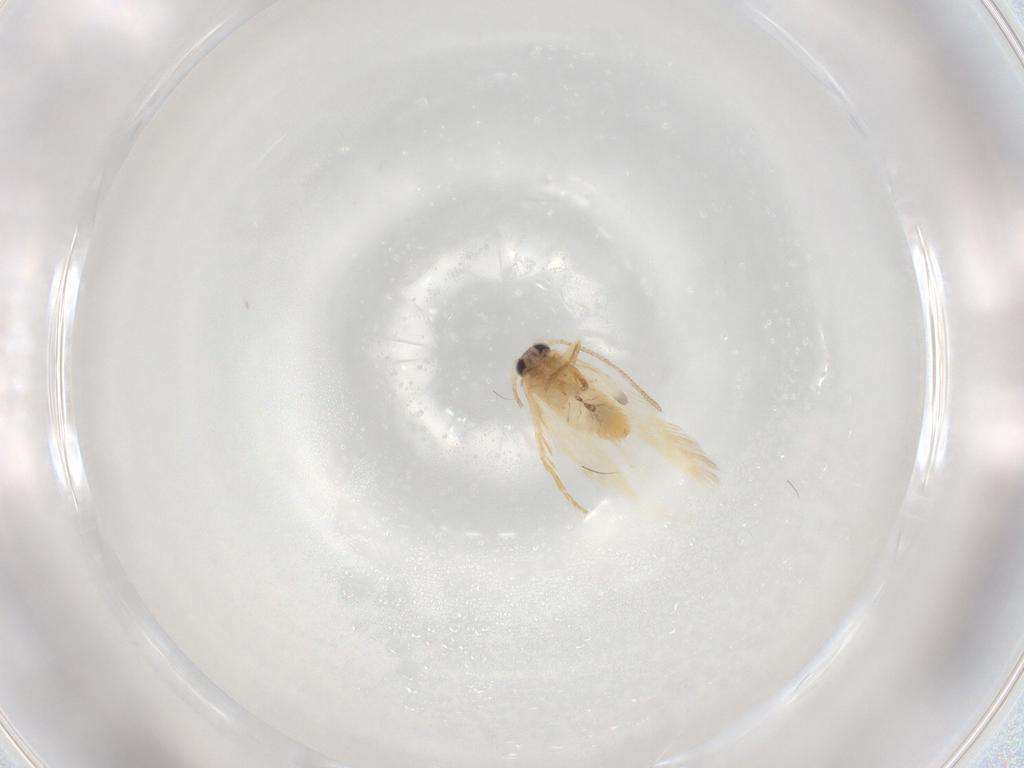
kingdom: Animalia
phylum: Arthropoda
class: Insecta
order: Lepidoptera
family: Nepticulidae
